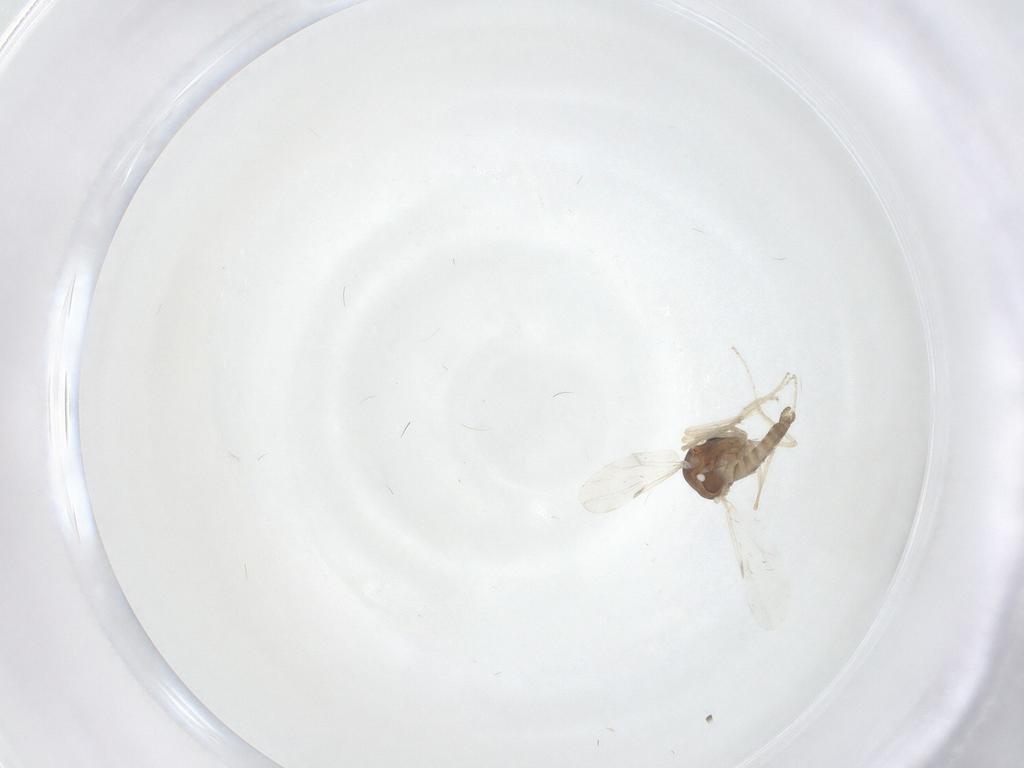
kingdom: Animalia
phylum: Arthropoda
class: Insecta
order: Diptera
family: Ceratopogonidae
